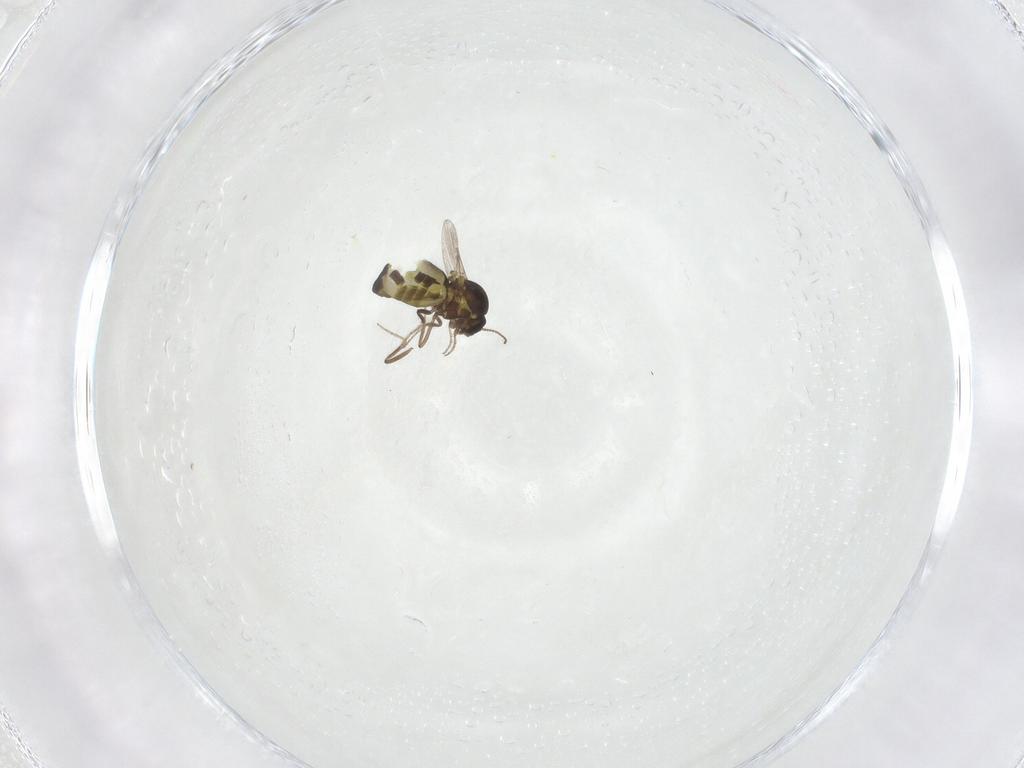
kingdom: Animalia
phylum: Arthropoda
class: Insecta
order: Diptera
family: Ceratopogonidae
